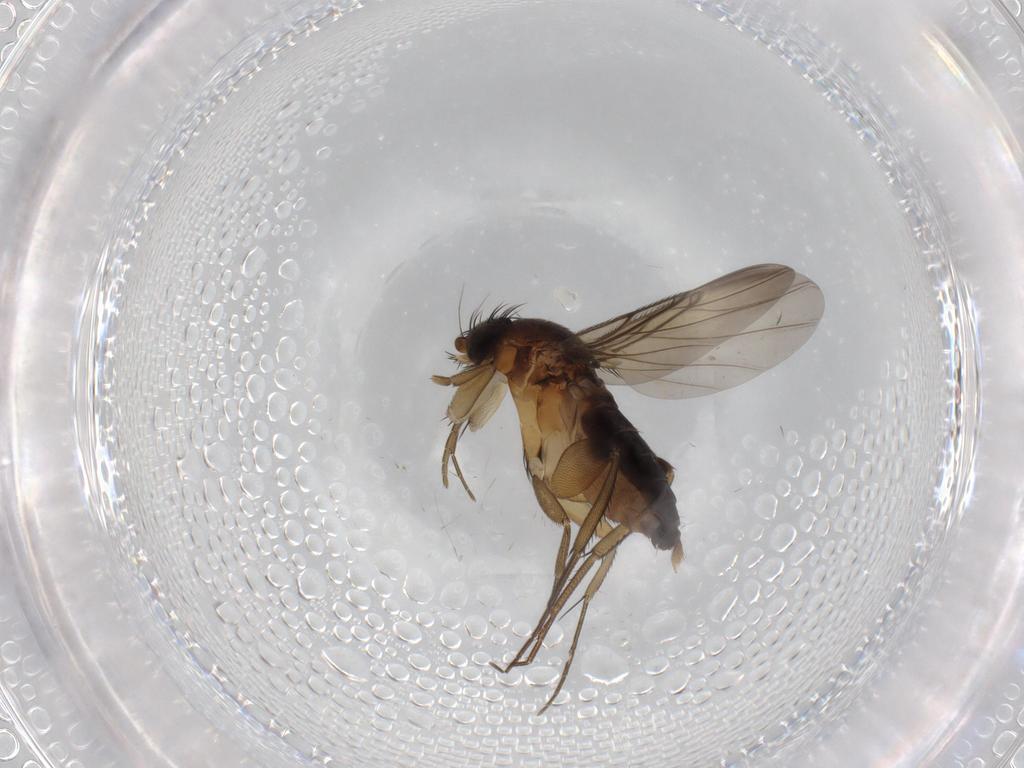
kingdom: Animalia
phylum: Arthropoda
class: Insecta
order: Diptera
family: Phoridae
